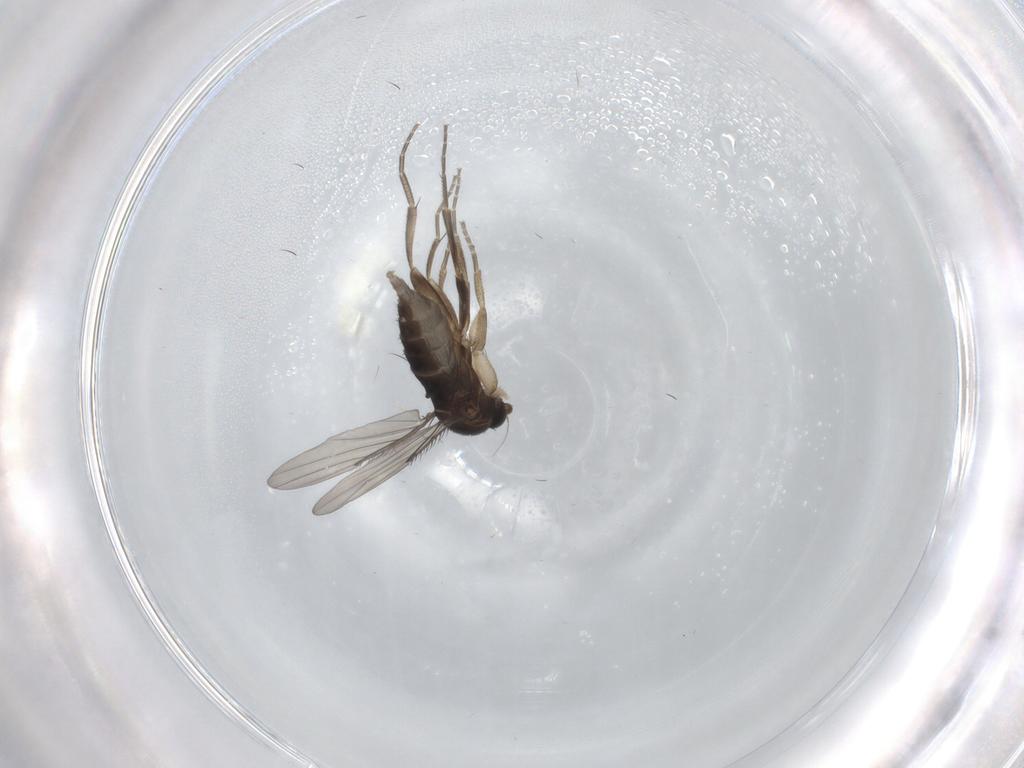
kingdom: Animalia
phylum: Arthropoda
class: Insecta
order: Diptera
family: Phoridae
